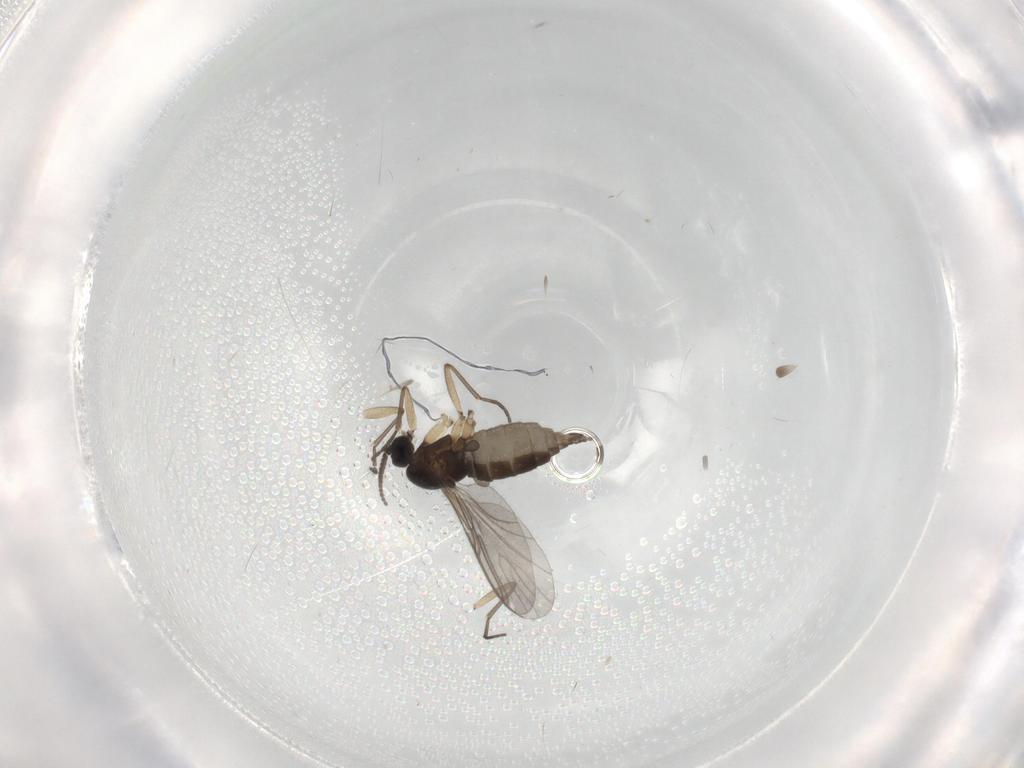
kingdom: Animalia
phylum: Arthropoda
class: Insecta
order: Diptera
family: Sciaridae
